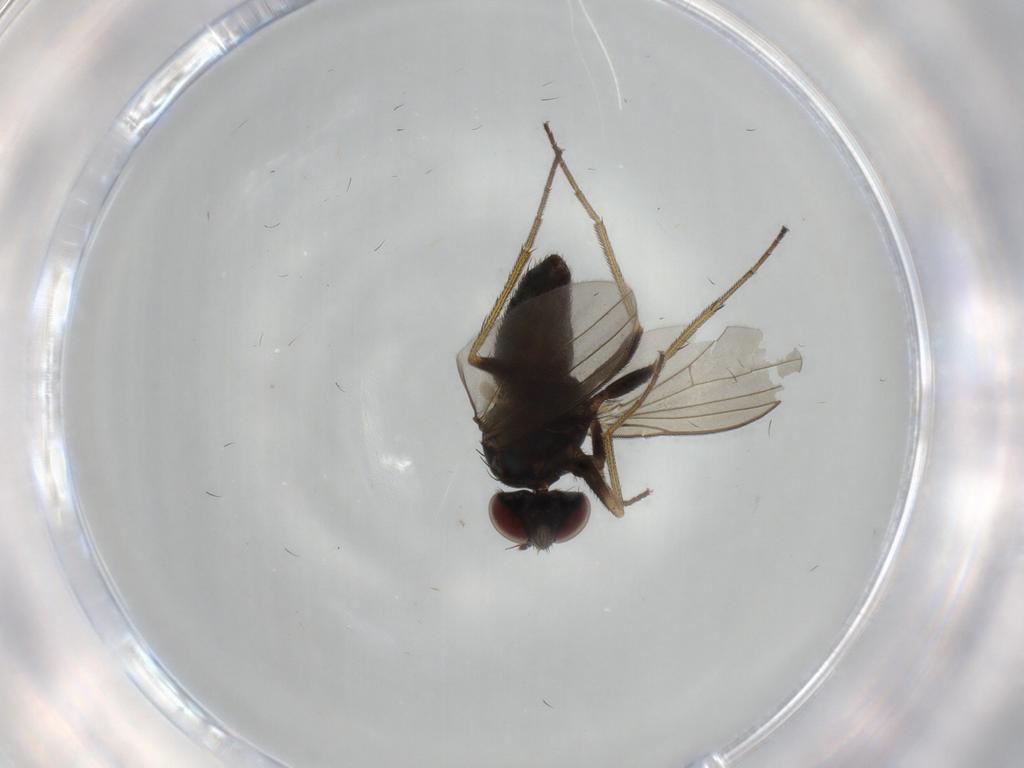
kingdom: Animalia
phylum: Arthropoda
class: Insecta
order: Diptera
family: Dolichopodidae
